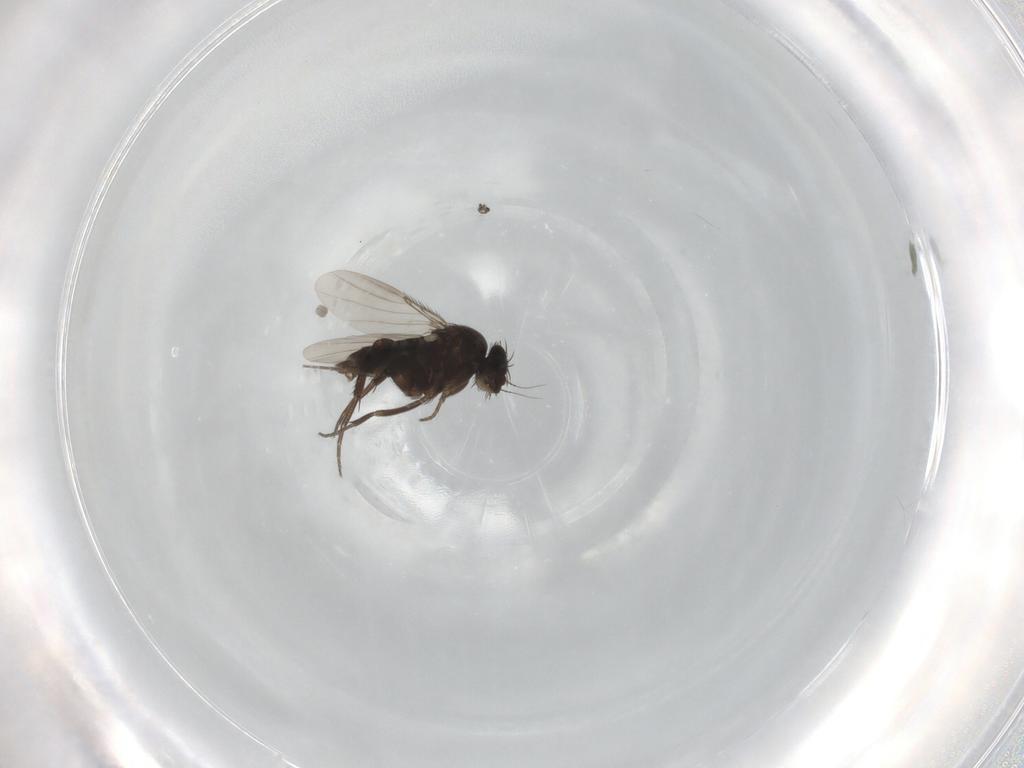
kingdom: Animalia
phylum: Arthropoda
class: Insecta
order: Diptera
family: Phoridae
